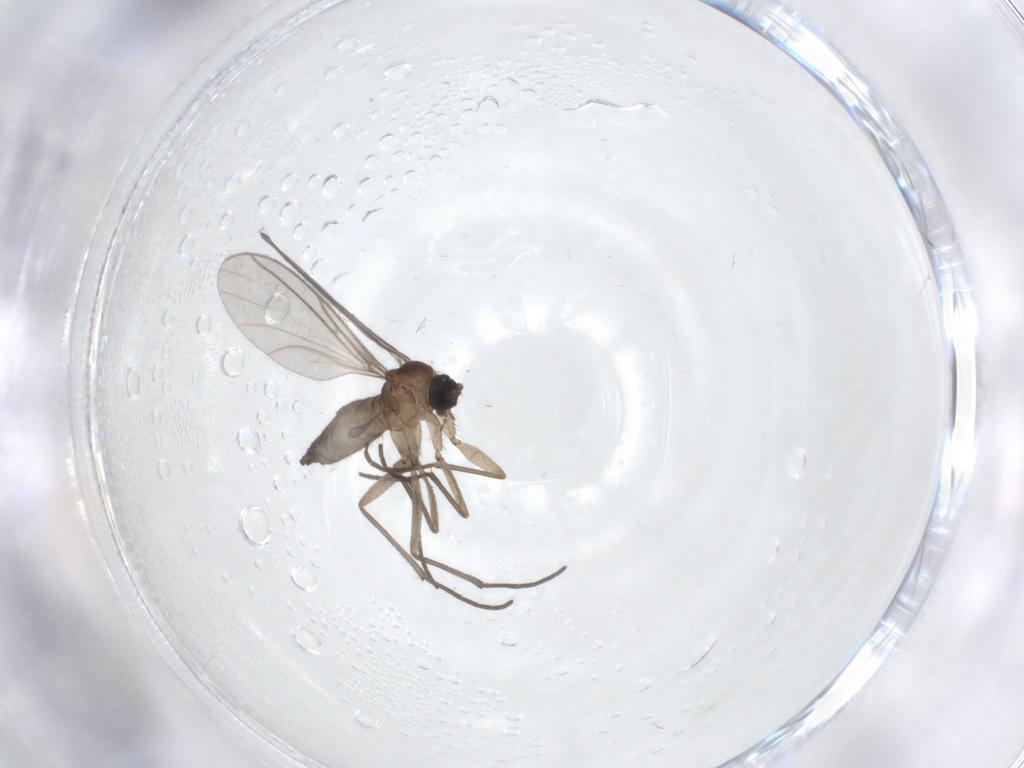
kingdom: Animalia
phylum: Arthropoda
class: Insecta
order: Diptera
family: Sciaridae
